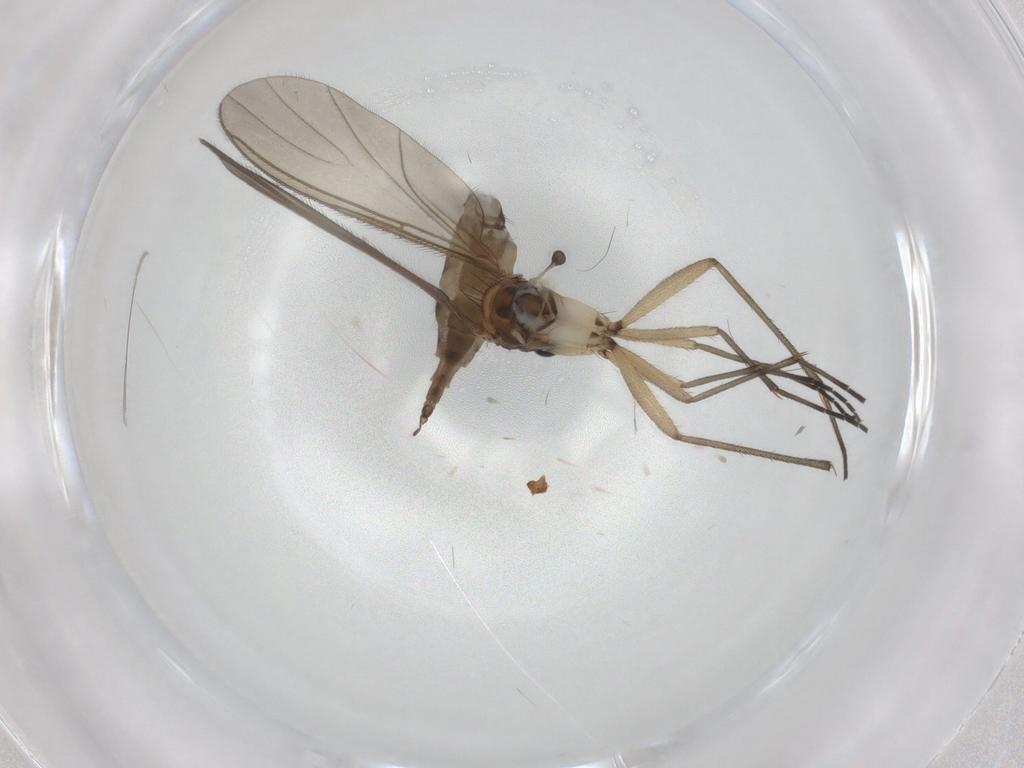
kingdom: Animalia
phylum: Arthropoda
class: Insecta
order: Diptera
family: Sciaridae
